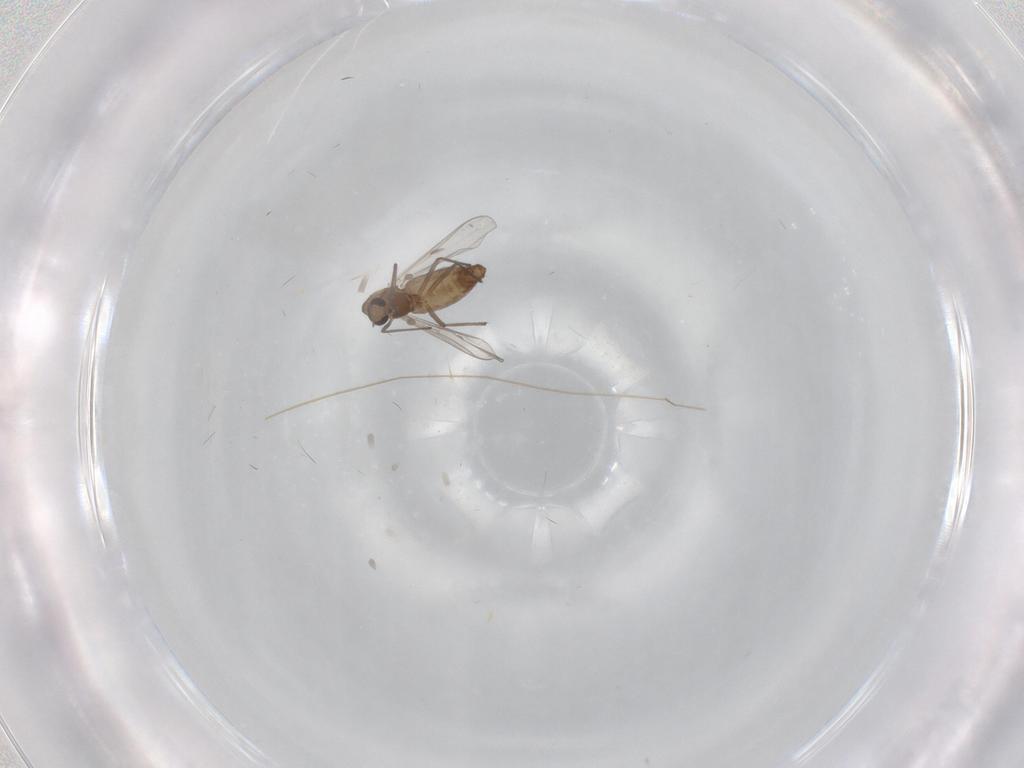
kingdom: Animalia
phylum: Arthropoda
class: Insecta
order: Diptera
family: Chironomidae
